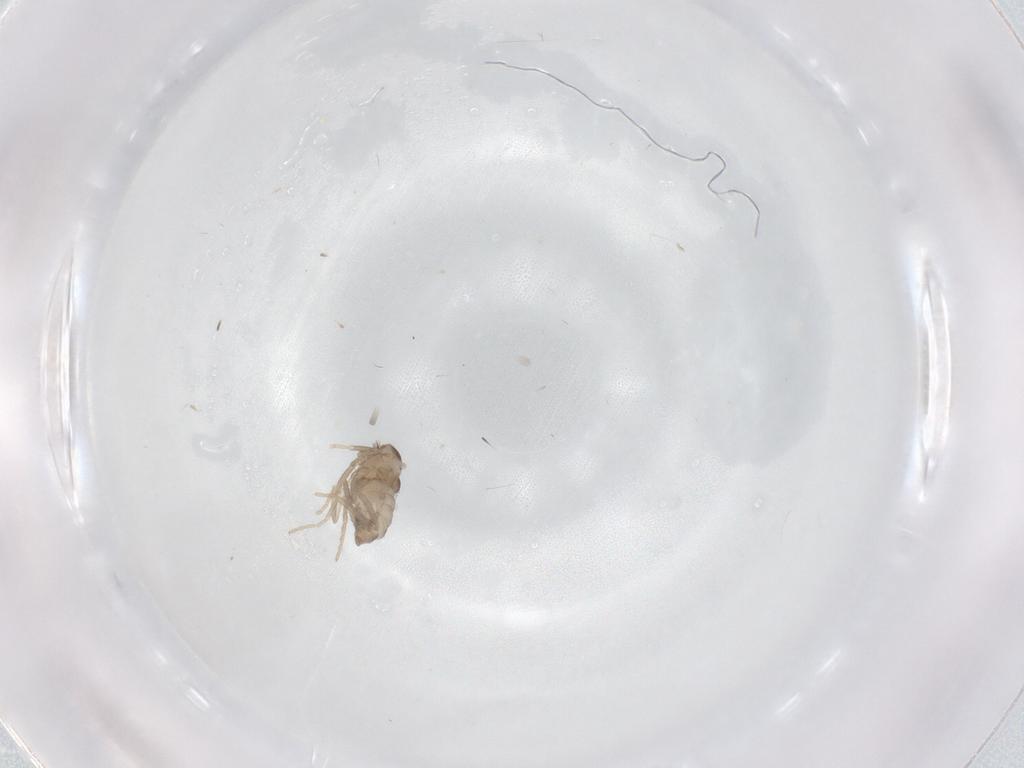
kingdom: Animalia
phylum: Arthropoda
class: Insecta
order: Diptera
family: Cecidomyiidae
